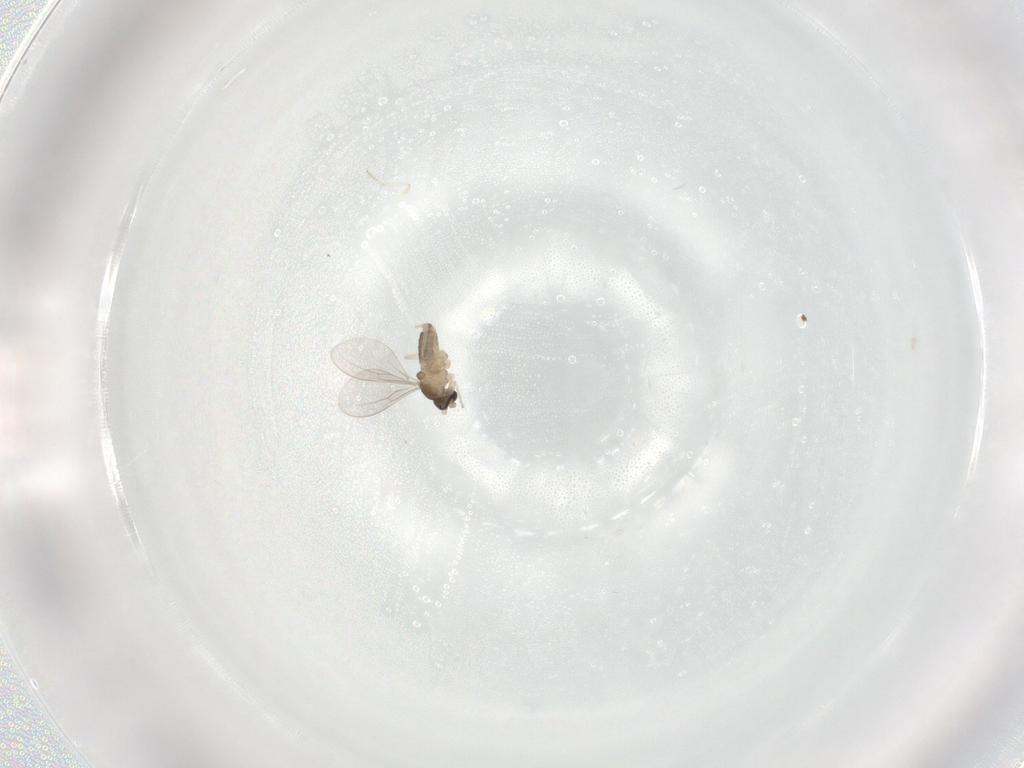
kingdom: Animalia
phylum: Arthropoda
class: Insecta
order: Diptera
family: Cecidomyiidae
